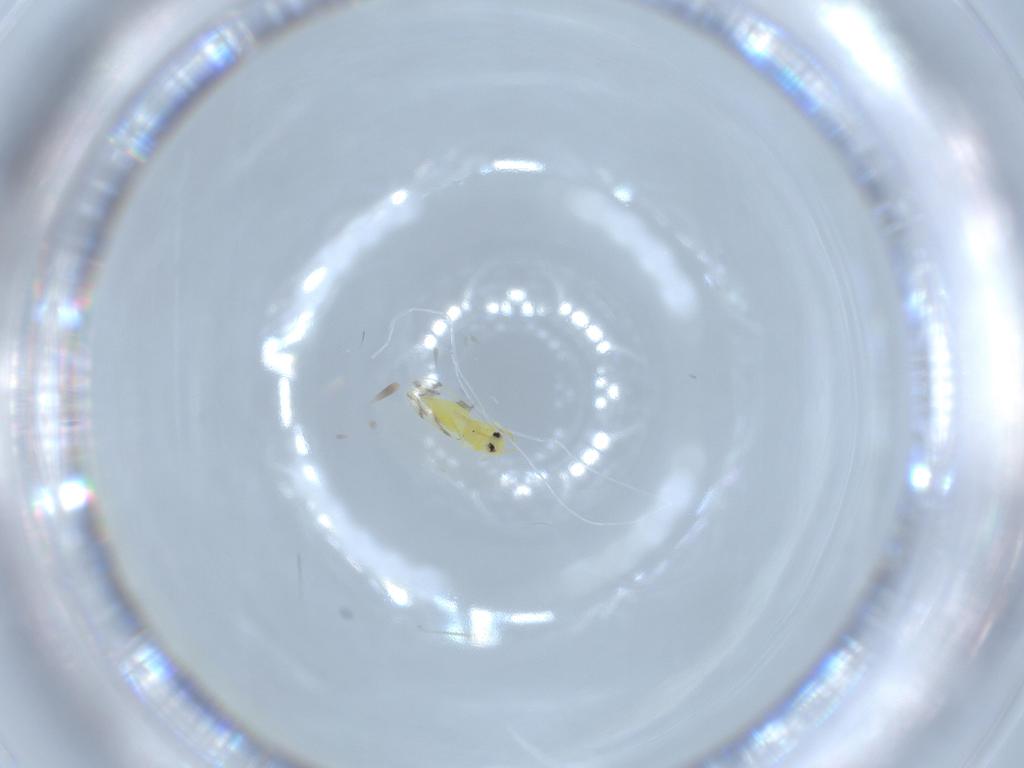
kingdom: Animalia
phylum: Arthropoda
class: Insecta
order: Hemiptera
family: Aleyrodidae
